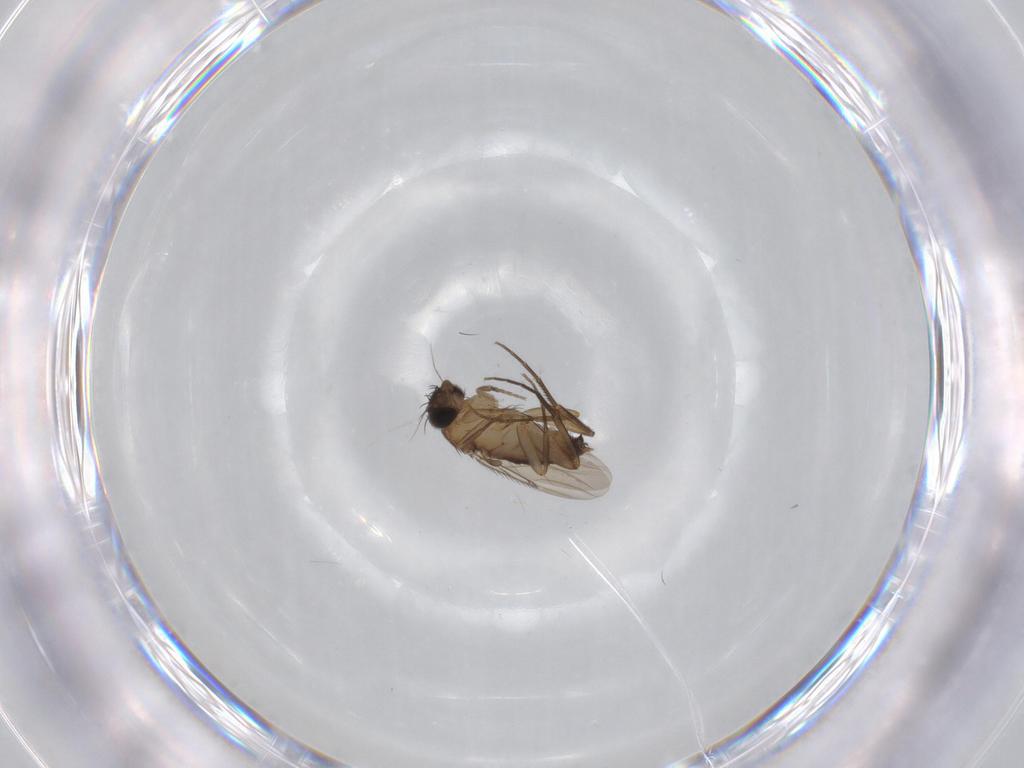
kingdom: Animalia
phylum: Arthropoda
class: Insecta
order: Diptera
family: Phoridae
